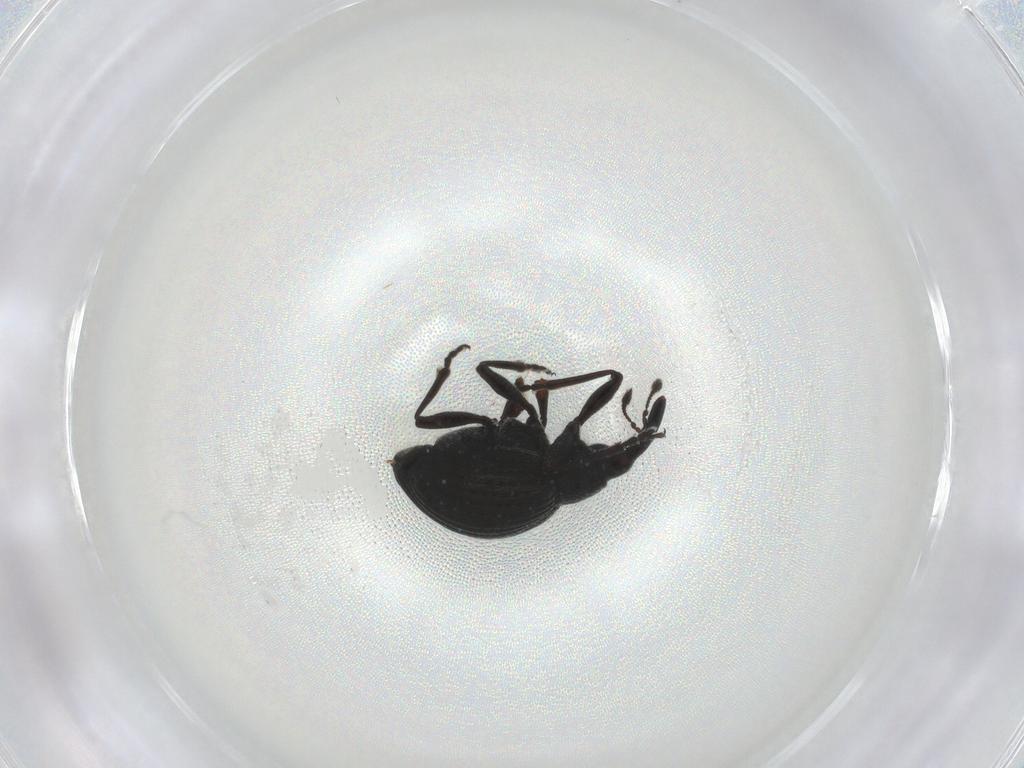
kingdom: Animalia
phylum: Arthropoda
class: Insecta
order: Coleoptera
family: Brentidae
